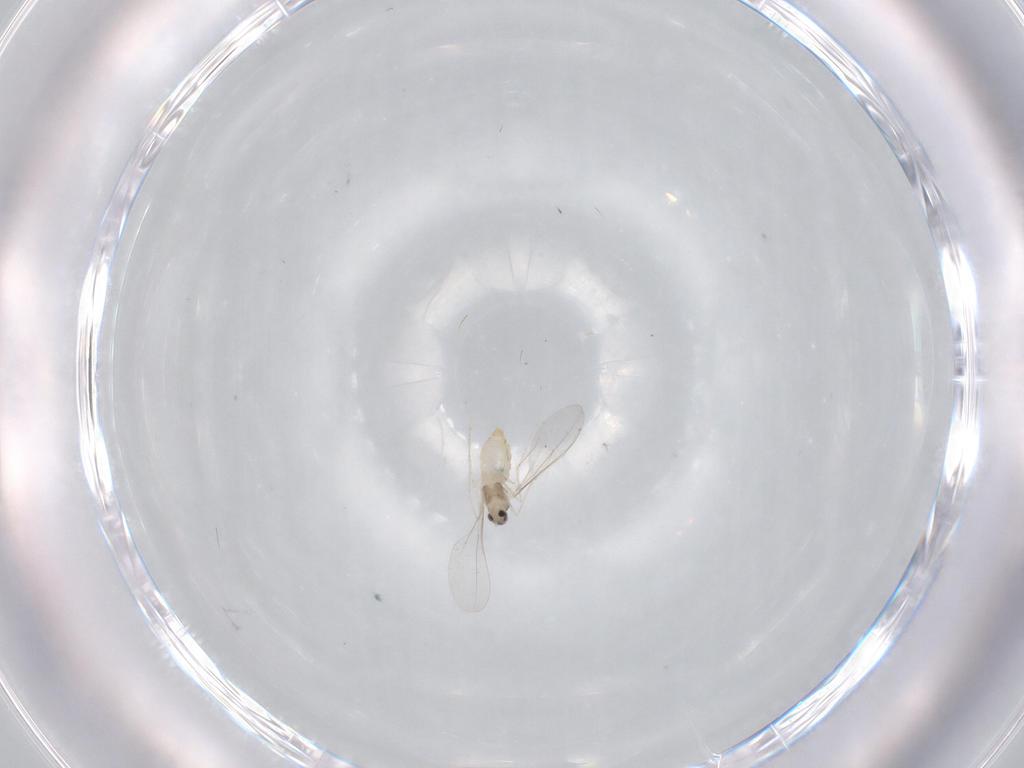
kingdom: Animalia
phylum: Arthropoda
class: Insecta
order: Diptera
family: Cecidomyiidae
